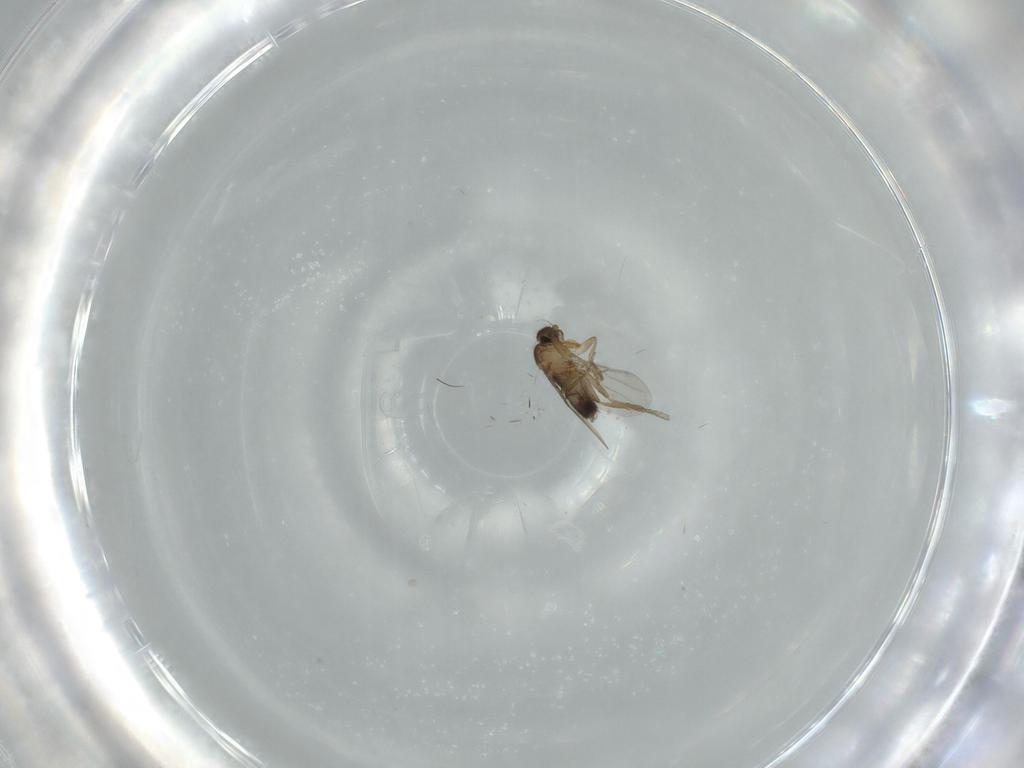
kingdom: Animalia
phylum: Arthropoda
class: Insecta
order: Diptera
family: Phoridae
